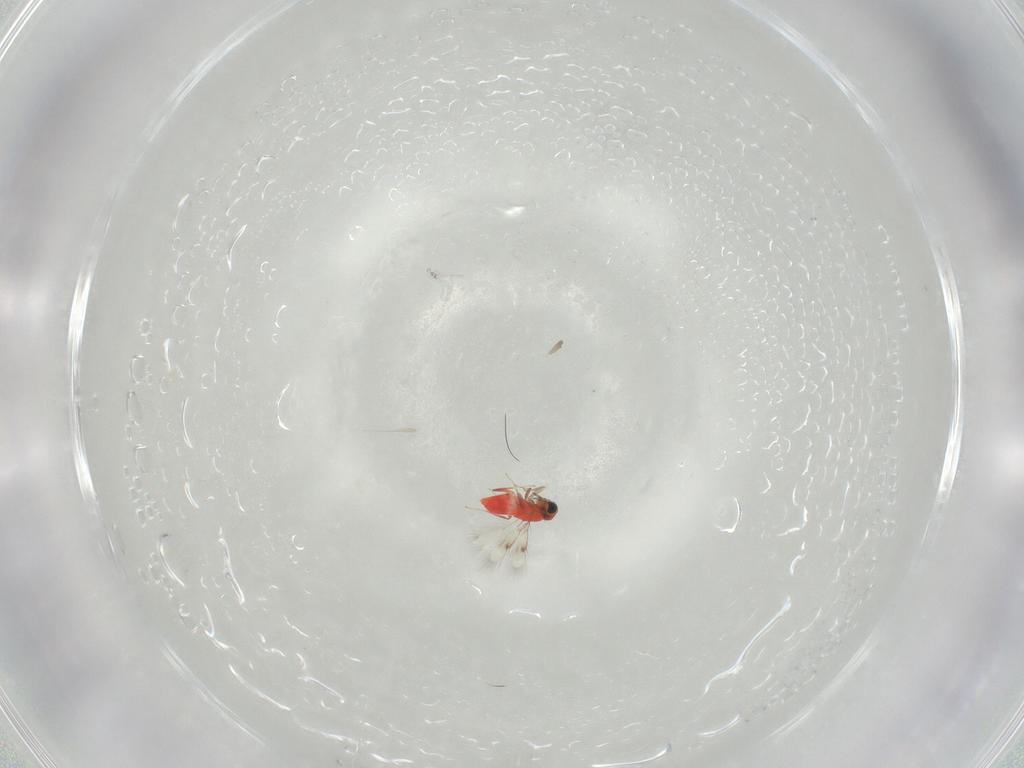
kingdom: Animalia
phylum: Arthropoda
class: Insecta
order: Hymenoptera
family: Trichogrammatidae
